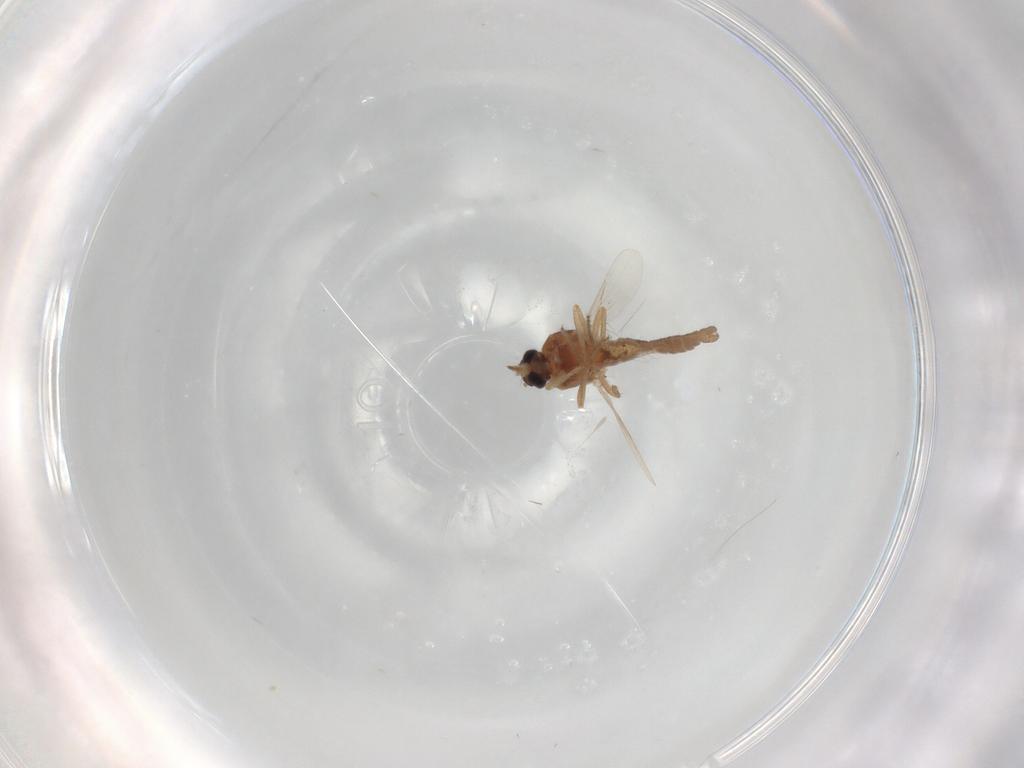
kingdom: Animalia
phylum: Arthropoda
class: Insecta
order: Diptera
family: Ceratopogonidae
